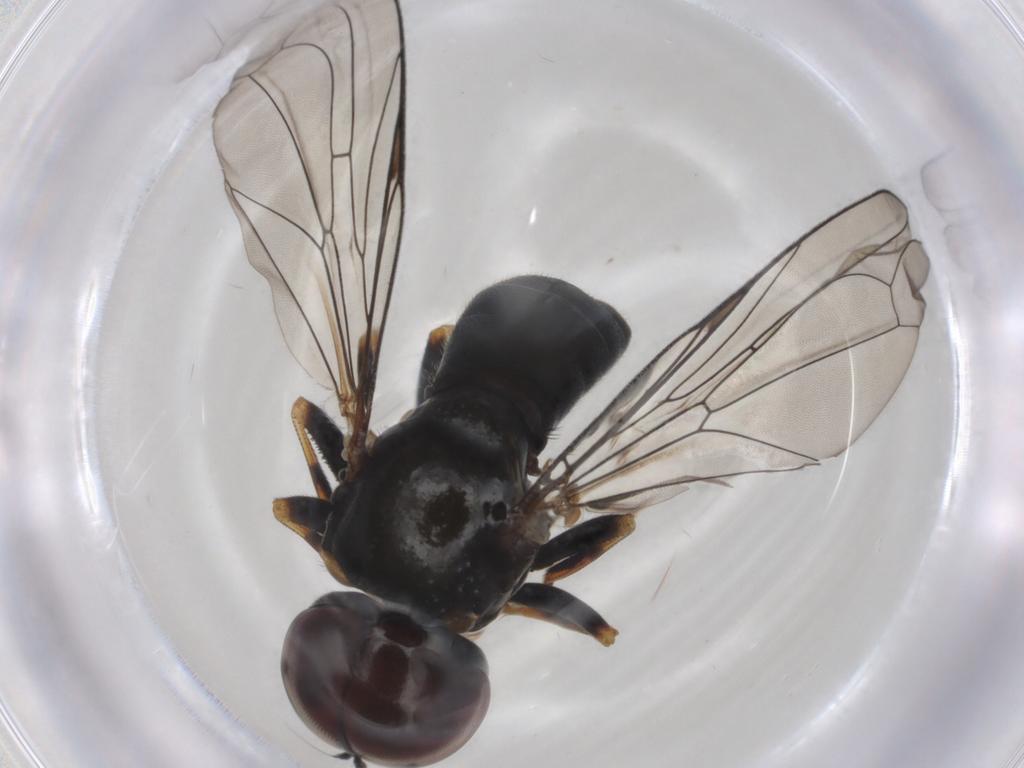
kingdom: Animalia
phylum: Arthropoda
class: Insecta
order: Diptera
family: Agromyzidae
